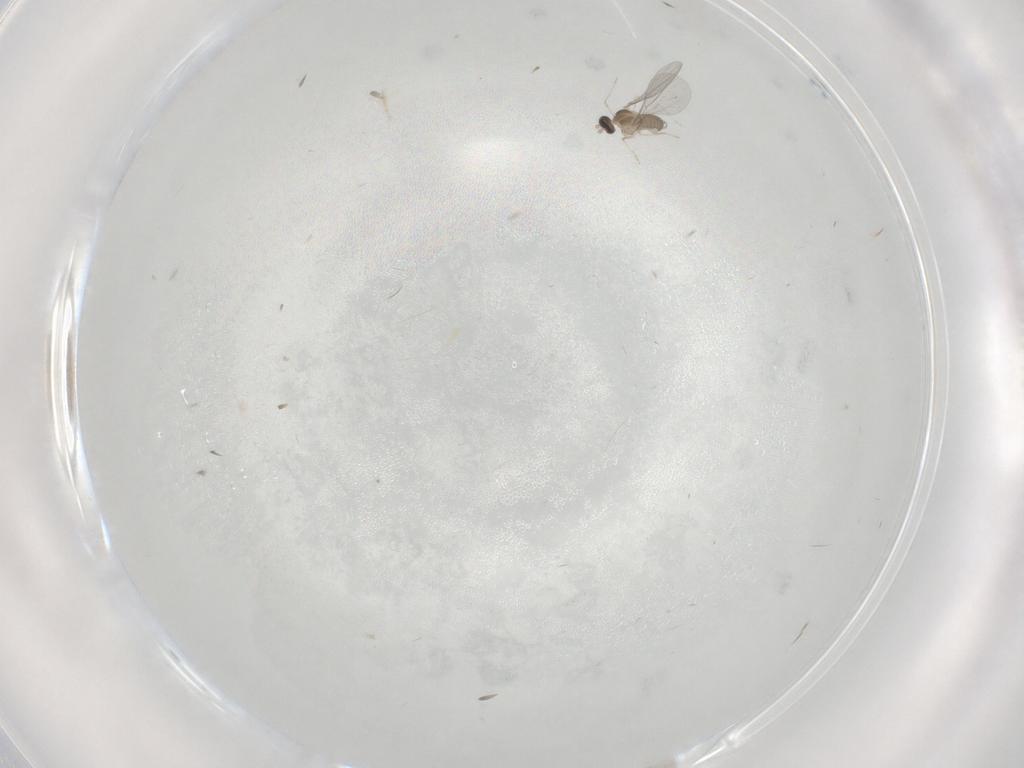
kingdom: Animalia
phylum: Arthropoda
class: Insecta
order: Diptera
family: Cecidomyiidae
